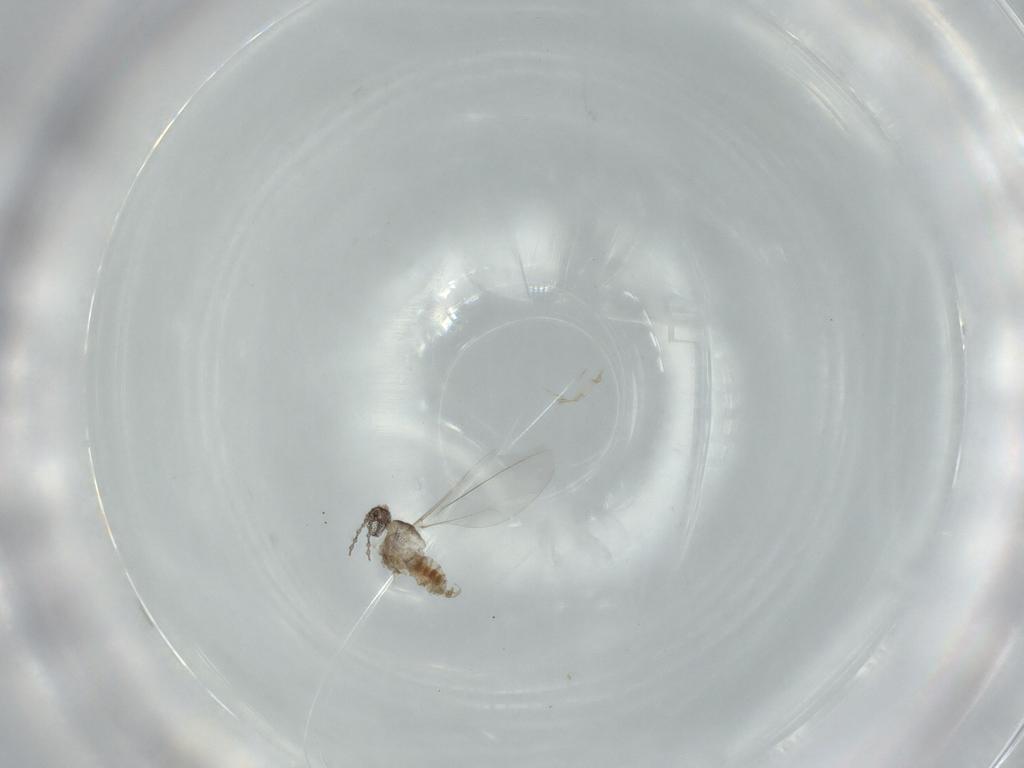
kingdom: Animalia
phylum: Arthropoda
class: Insecta
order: Diptera
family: Cecidomyiidae
